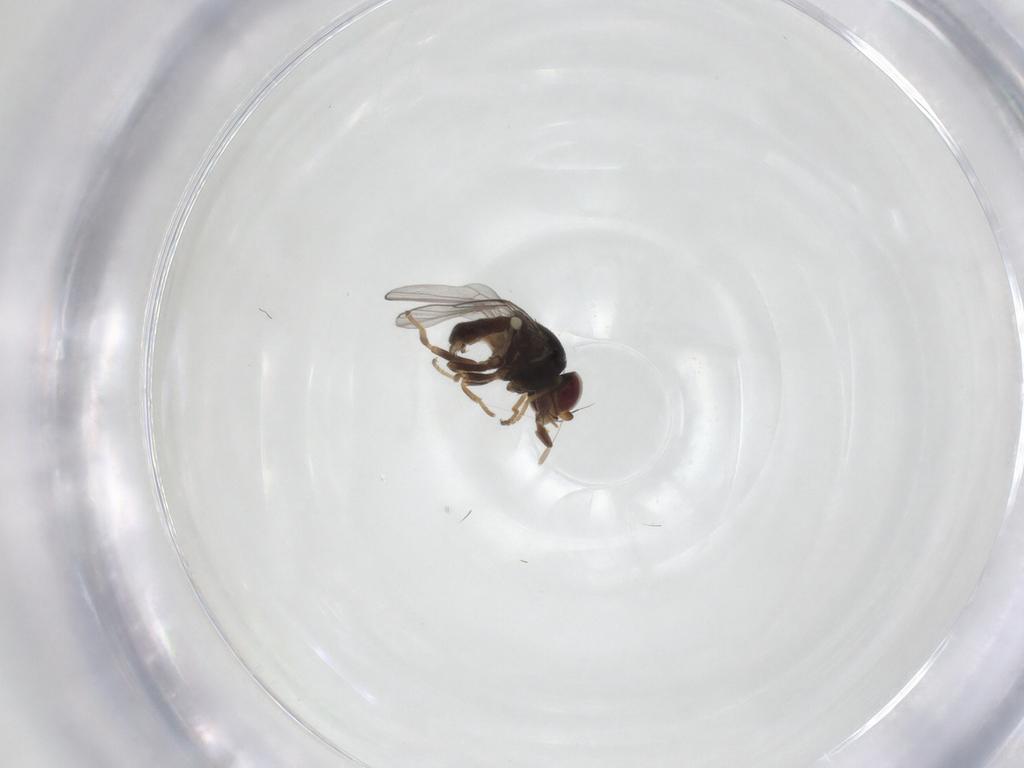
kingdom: Animalia
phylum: Arthropoda
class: Insecta
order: Diptera
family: Chloropidae
